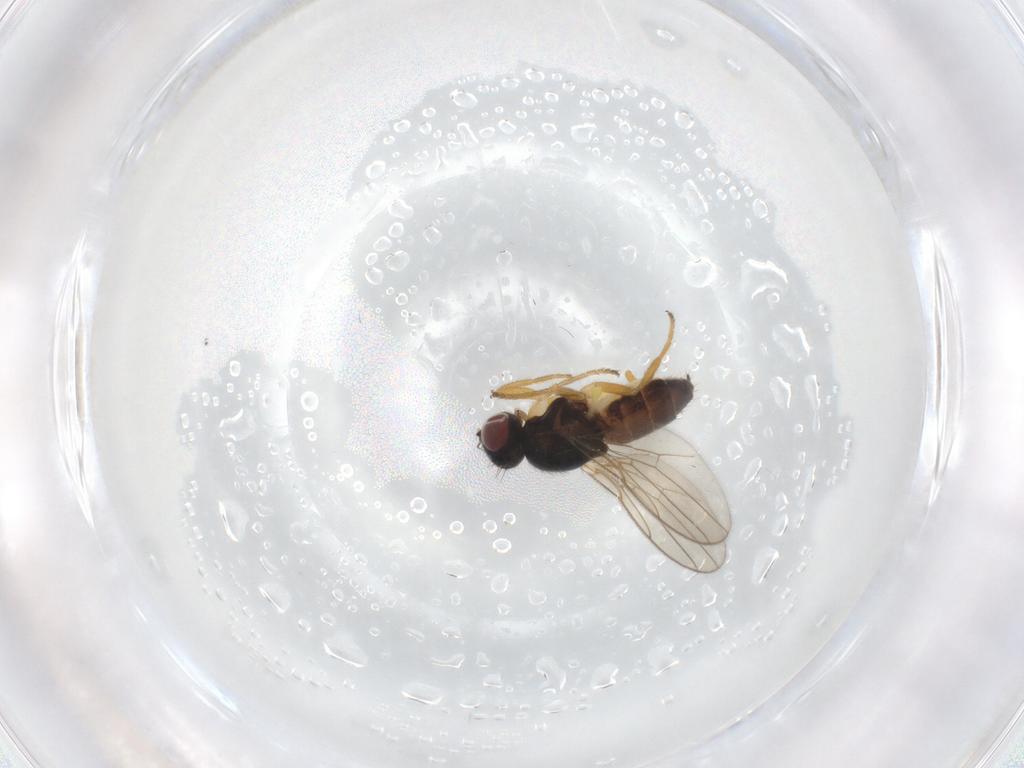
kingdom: Animalia
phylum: Arthropoda
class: Insecta
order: Diptera
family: Chloropidae
